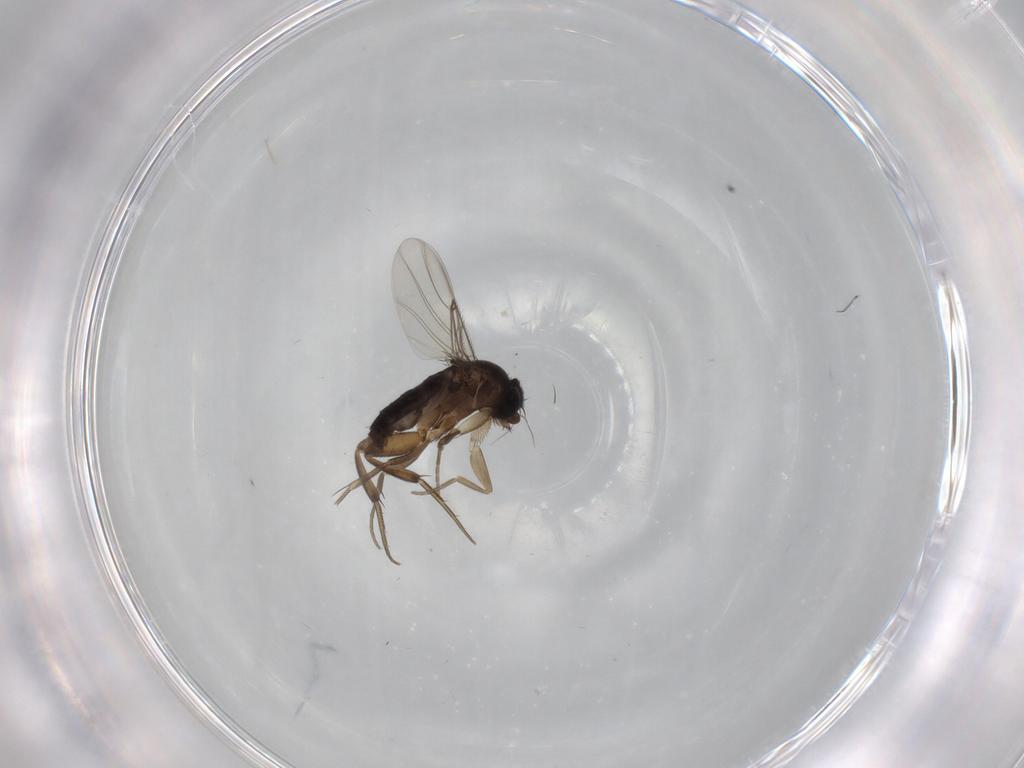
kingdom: Animalia
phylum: Arthropoda
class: Insecta
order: Diptera
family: Phoridae
